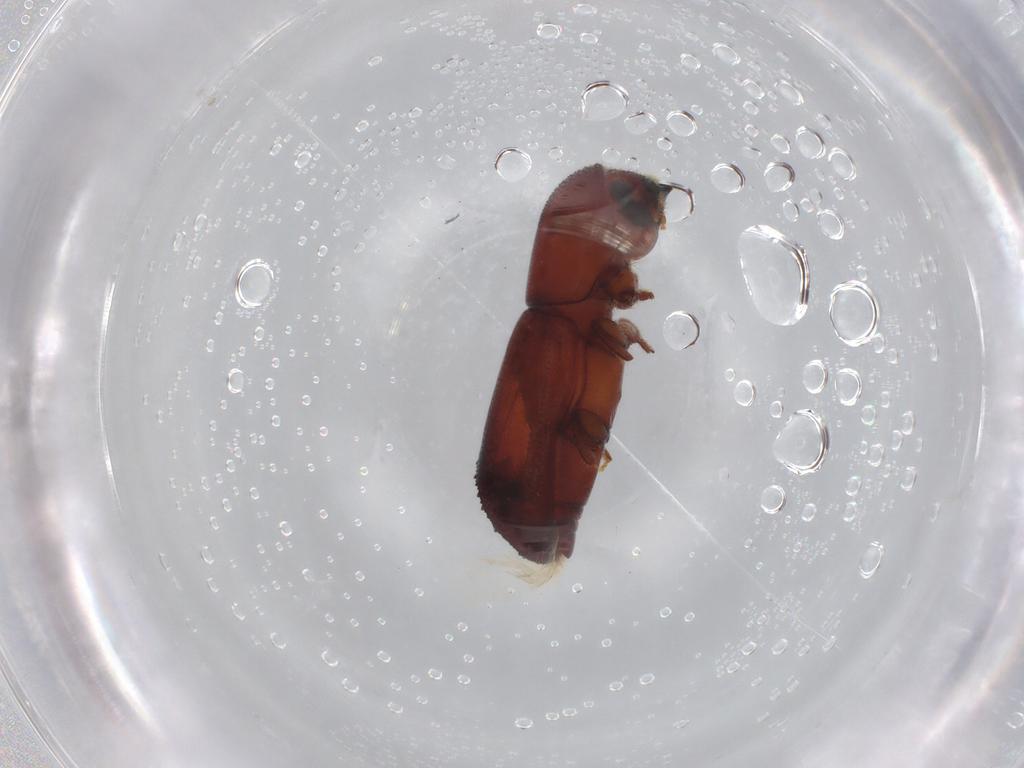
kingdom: Animalia
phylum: Arthropoda
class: Insecta
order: Coleoptera
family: Curculionidae
